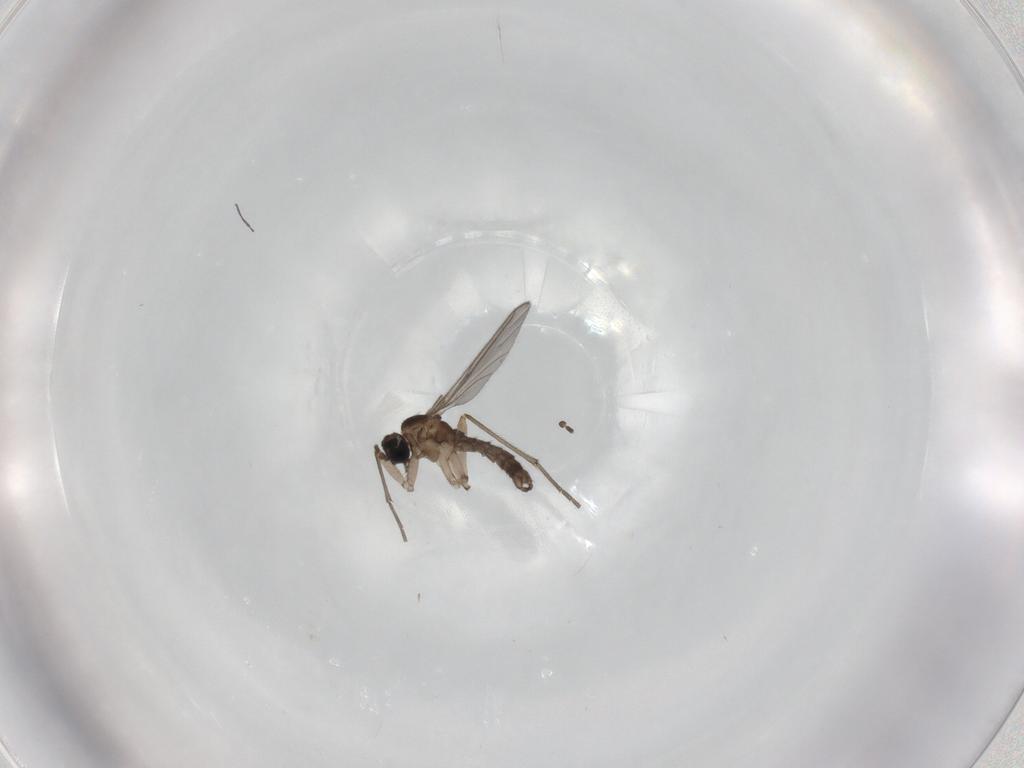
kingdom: Animalia
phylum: Arthropoda
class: Insecta
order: Diptera
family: Sciaridae
